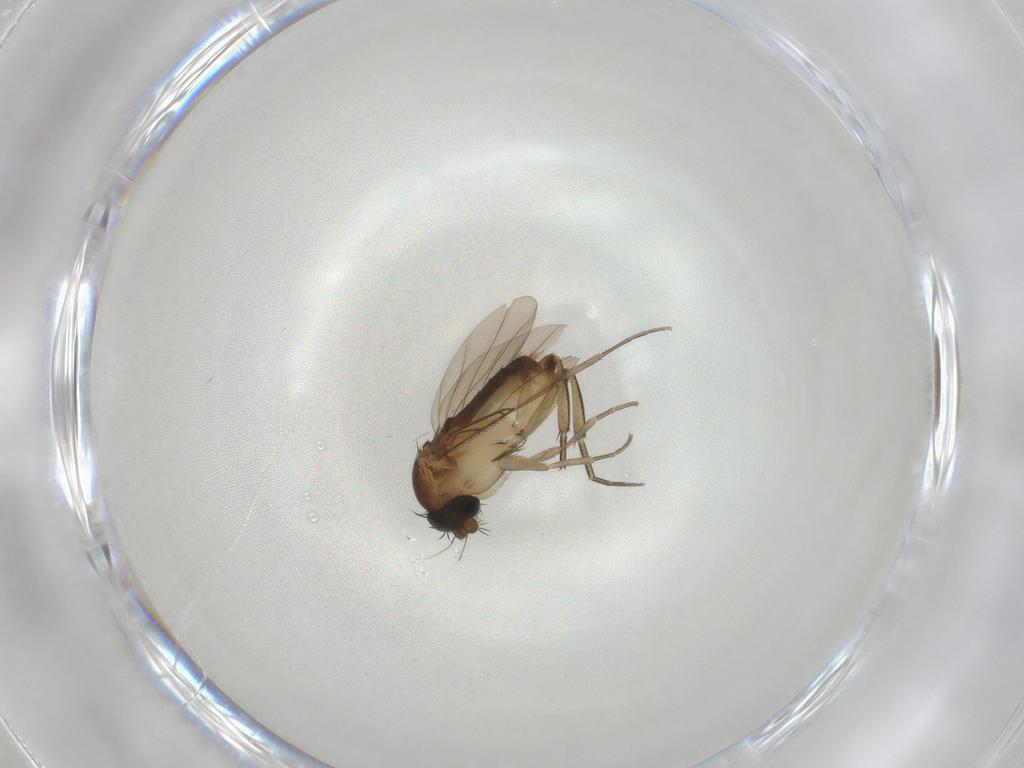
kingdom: Animalia
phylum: Arthropoda
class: Insecta
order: Diptera
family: Phoridae
